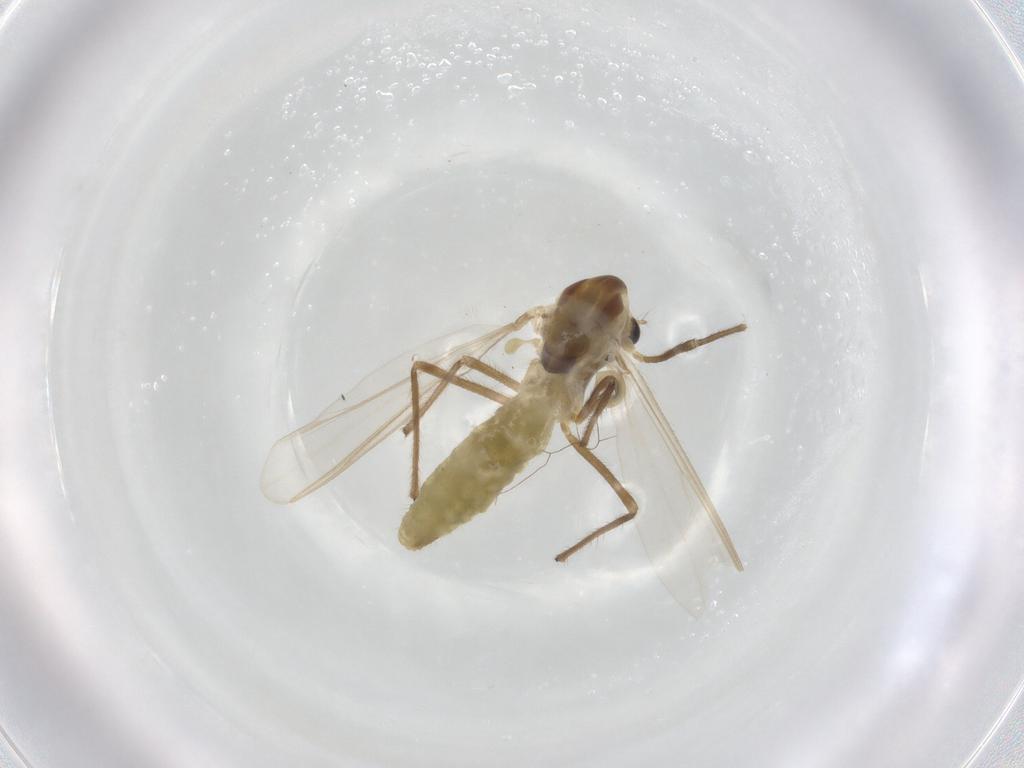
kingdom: Animalia
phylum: Arthropoda
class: Insecta
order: Diptera
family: Chironomidae
